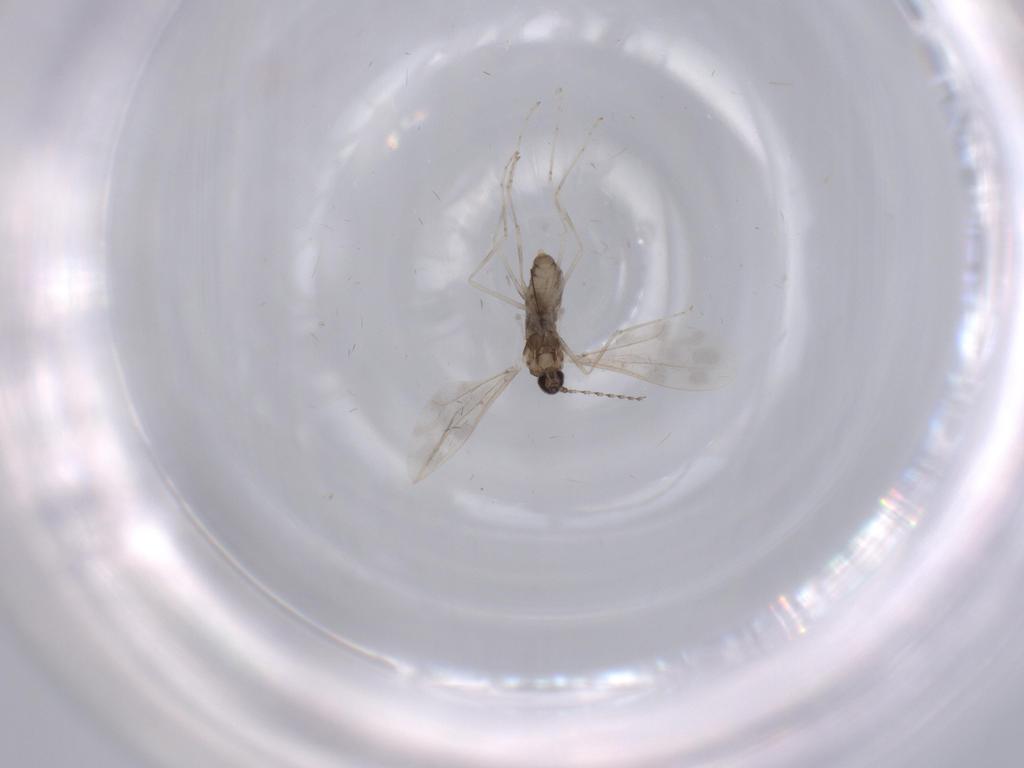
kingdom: Animalia
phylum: Arthropoda
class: Insecta
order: Diptera
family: Cecidomyiidae
